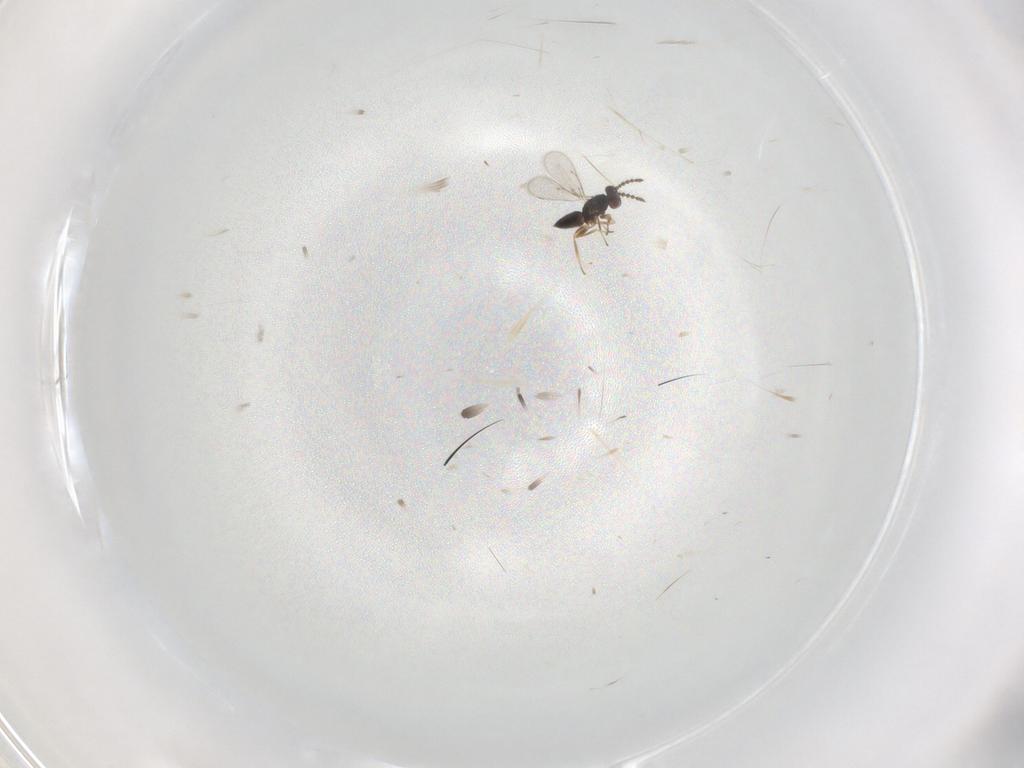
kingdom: Animalia
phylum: Arthropoda
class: Insecta
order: Hymenoptera
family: Eulophidae
